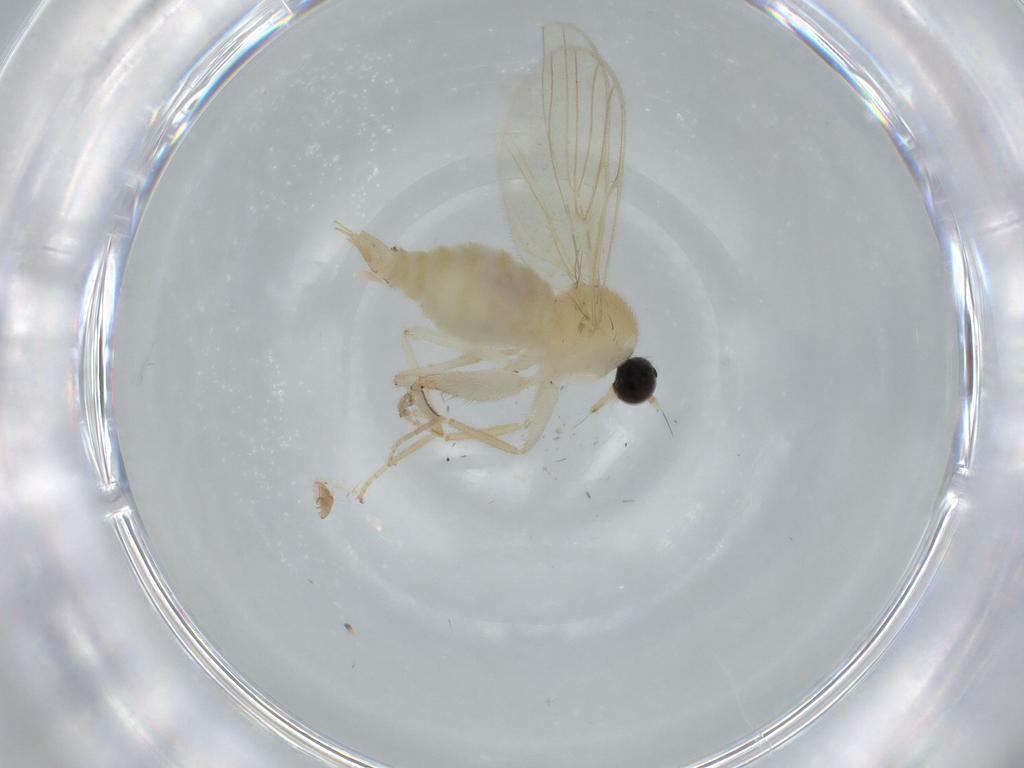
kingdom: Animalia
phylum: Arthropoda
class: Insecta
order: Diptera
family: Hybotidae
